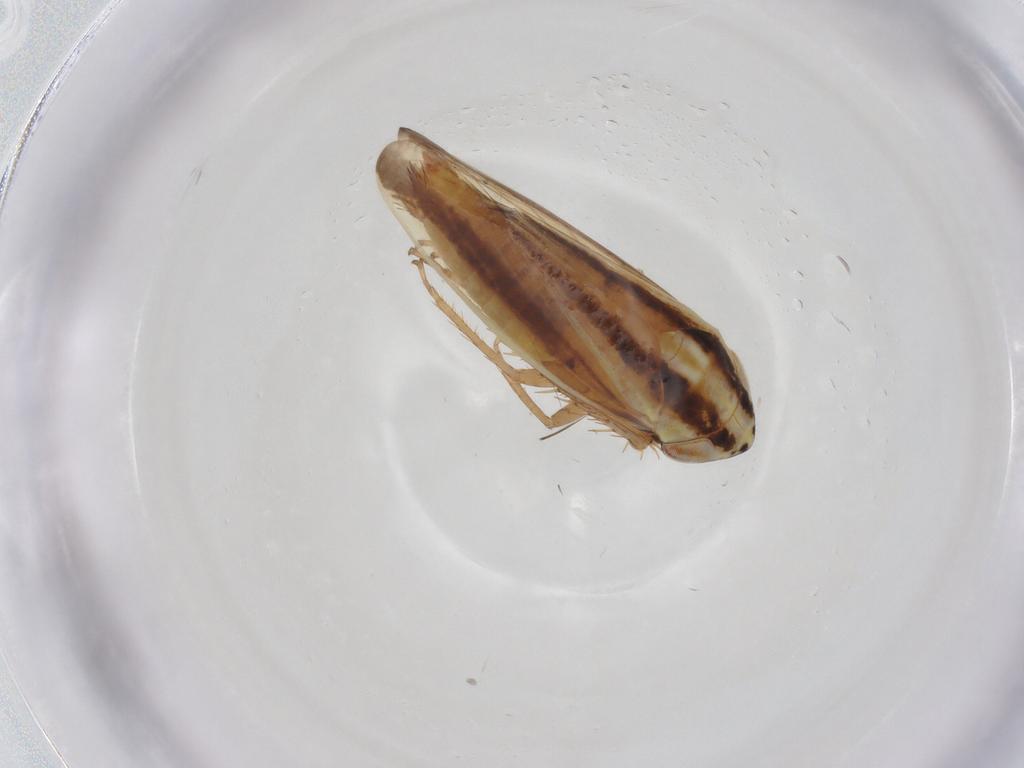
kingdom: Animalia
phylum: Arthropoda
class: Insecta
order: Hemiptera
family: Cicadellidae
